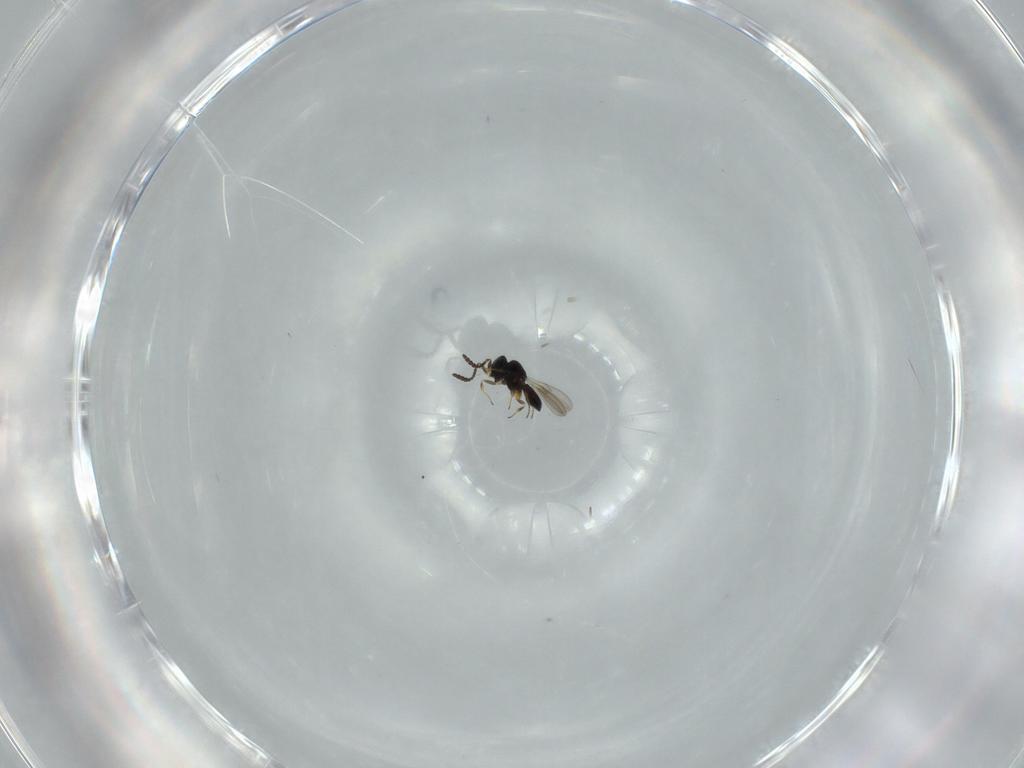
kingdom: Animalia
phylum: Arthropoda
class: Insecta
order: Hymenoptera
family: Scelionidae
